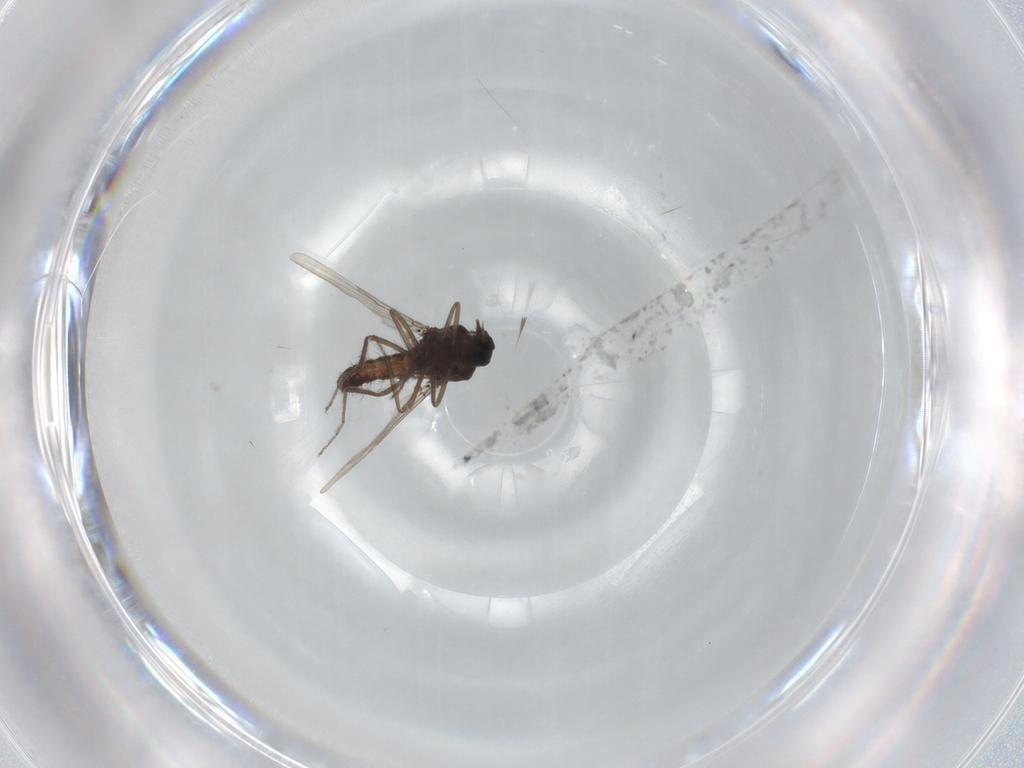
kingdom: Animalia
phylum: Arthropoda
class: Insecta
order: Diptera
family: Ceratopogonidae
